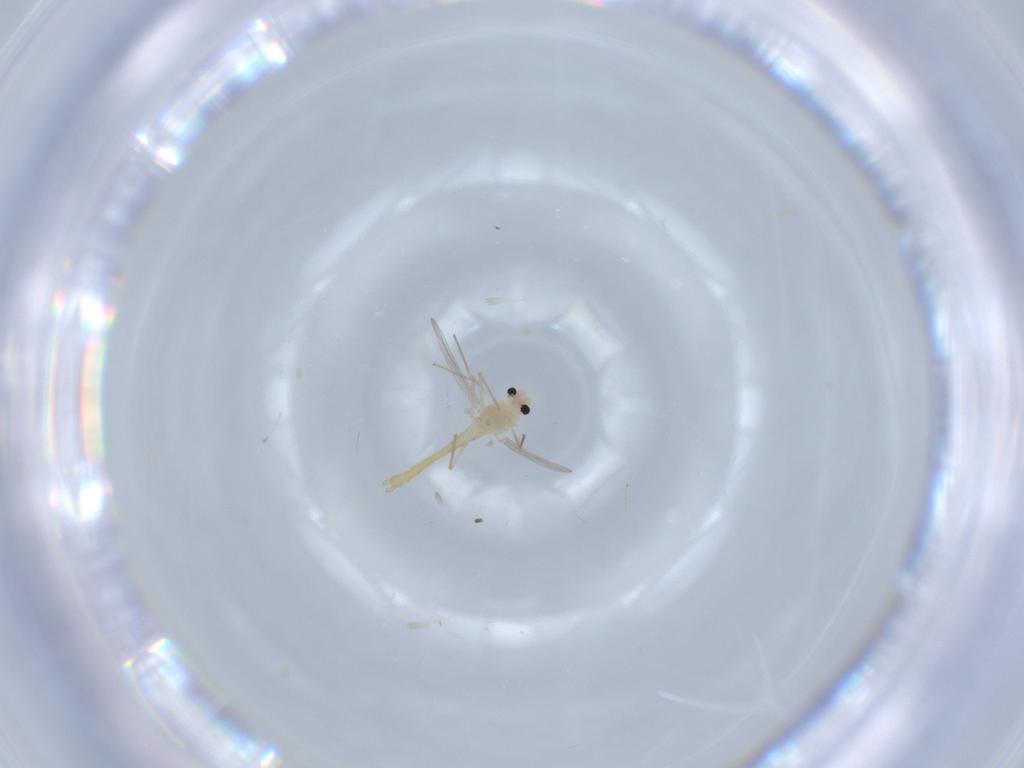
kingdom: Animalia
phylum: Arthropoda
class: Insecta
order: Diptera
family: Chironomidae
